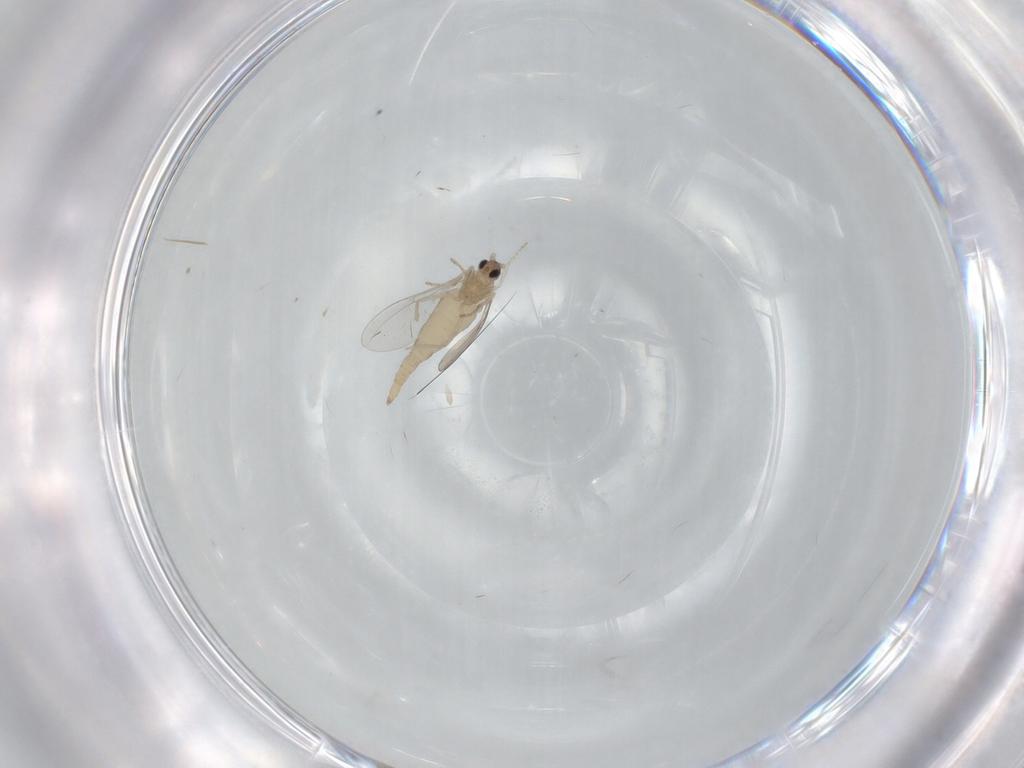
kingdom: Animalia
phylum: Arthropoda
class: Insecta
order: Diptera
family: Cecidomyiidae
